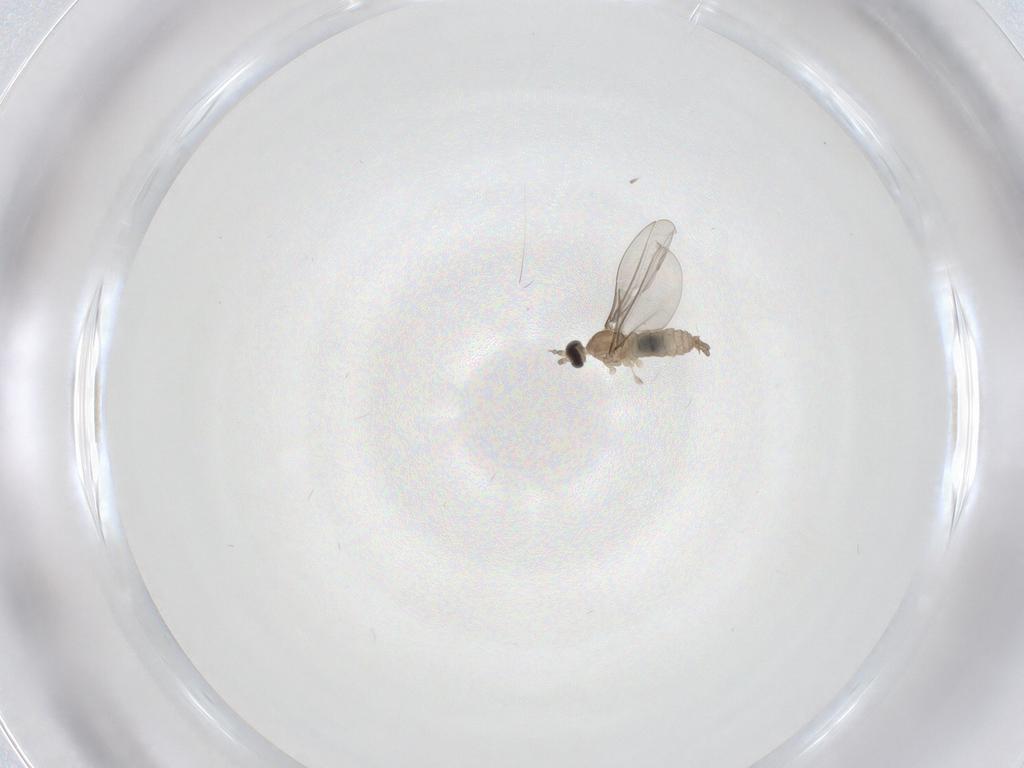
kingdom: Animalia
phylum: Arthropoda
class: Insecta
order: Diptera
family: Cecidomyiidae
